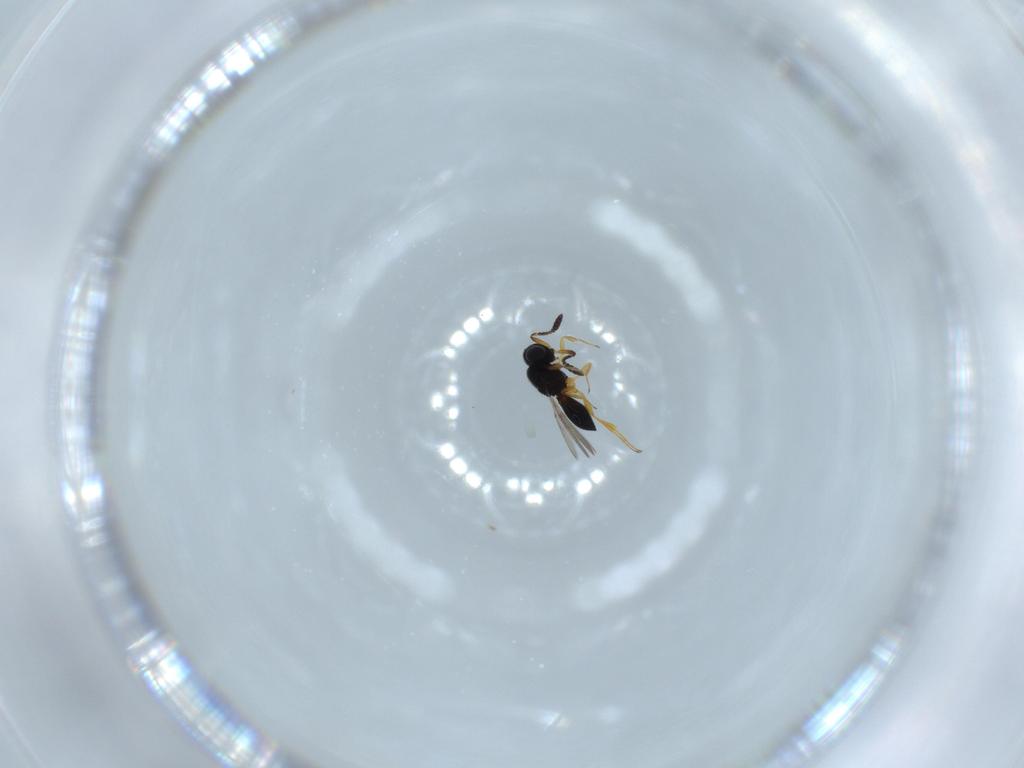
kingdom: Animalia
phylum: Arthropoda
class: Insecta
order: Hymenoptera
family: Scelionidae
